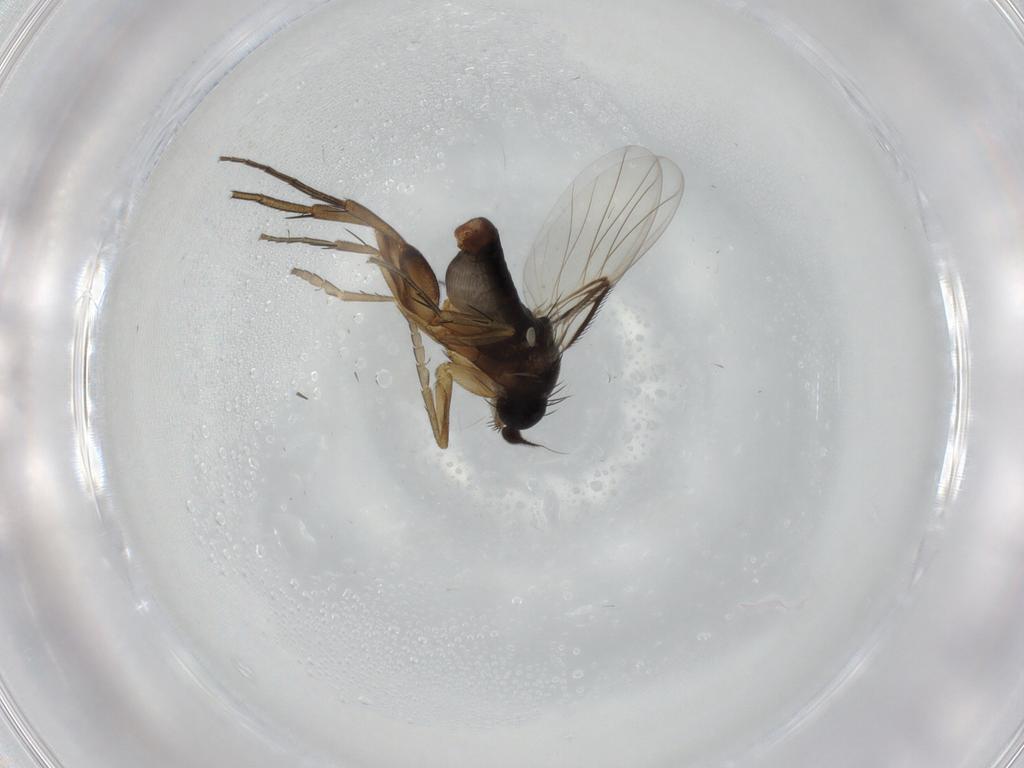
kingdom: Animalia
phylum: Arthropoda
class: Insecta
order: Diptera
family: Phoridae
